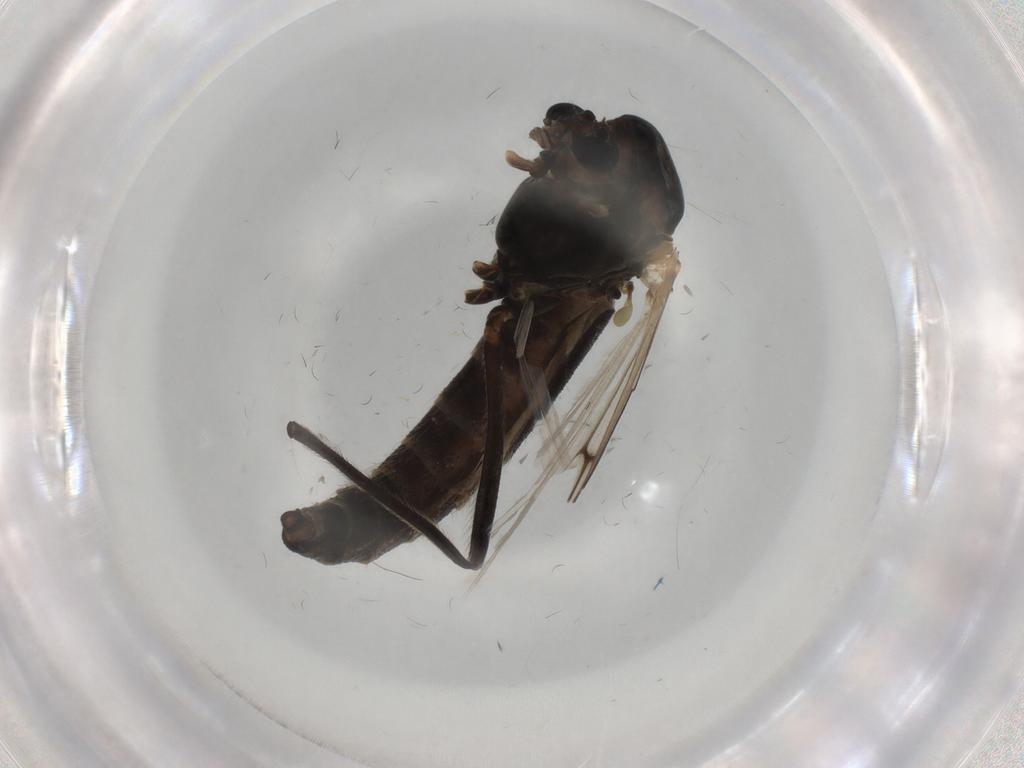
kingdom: Animalia
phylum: Arthropoda
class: Insecta
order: Diptera
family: Chironomidae
